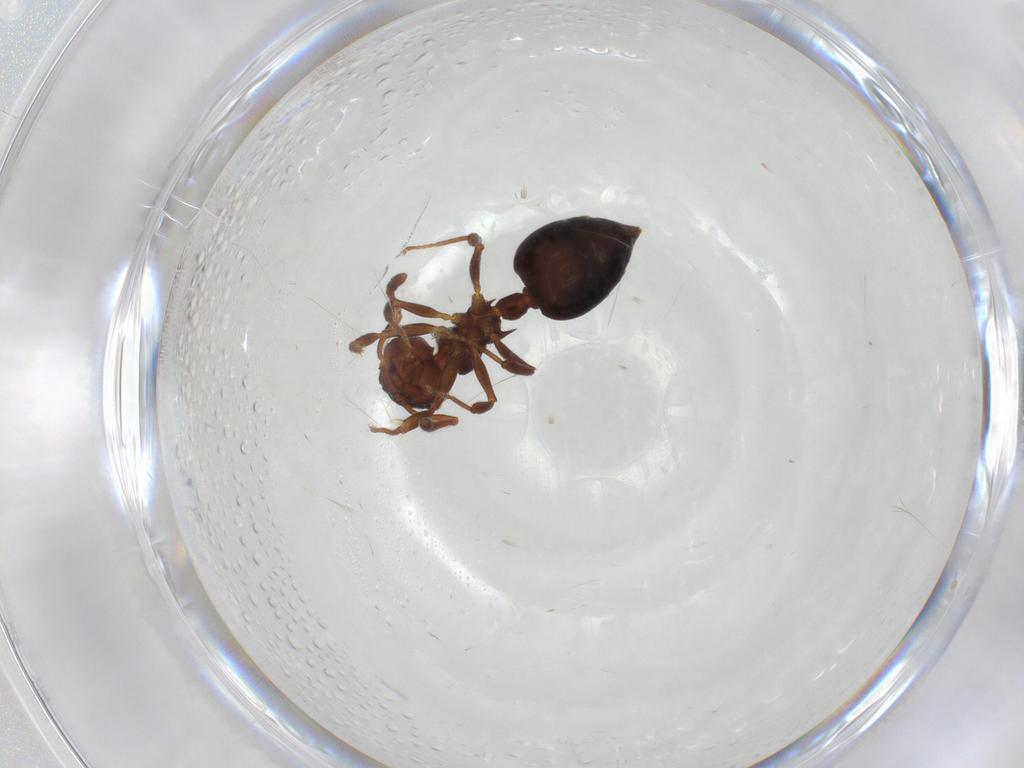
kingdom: Animalia
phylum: Arthropoda
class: Insecta
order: Hymenoptera
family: Formicidae
